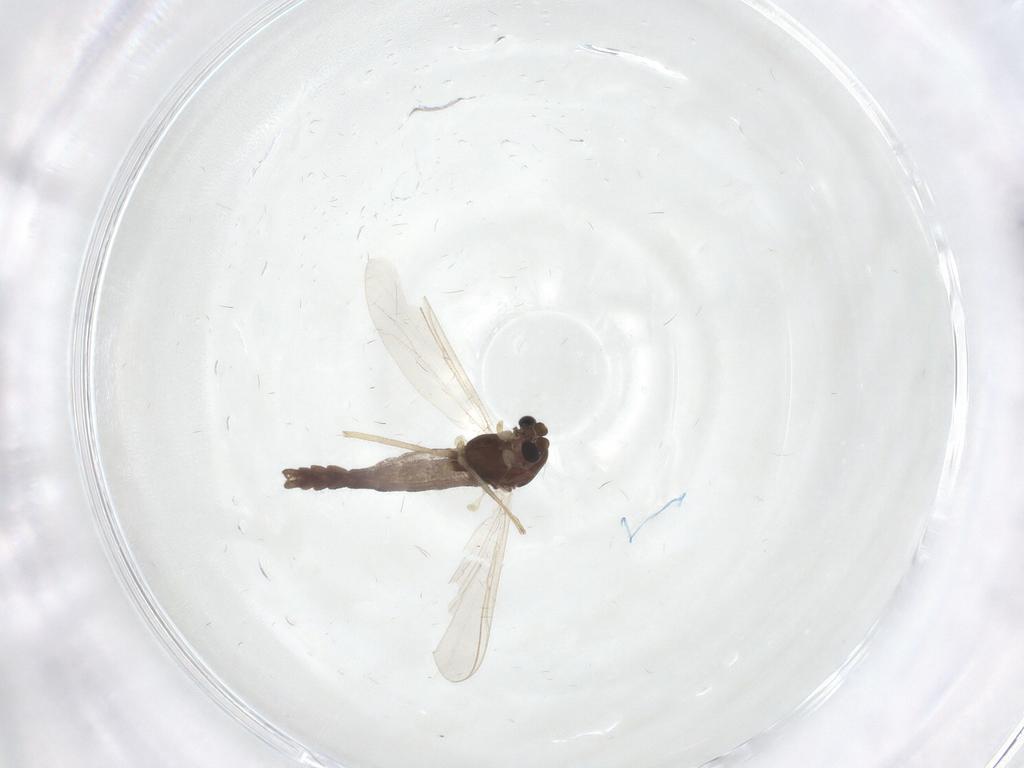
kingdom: Animalia
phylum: Arthropoda
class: Insecta
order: Diptera
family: Chironomidae
